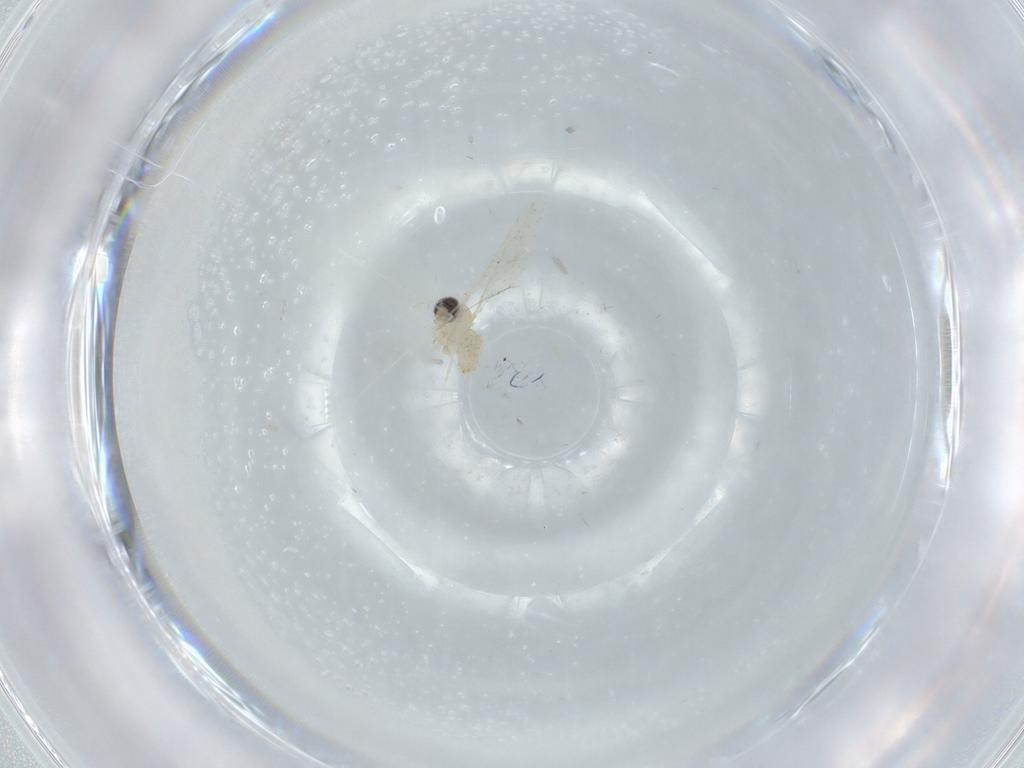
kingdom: Animalia
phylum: Arthropoda
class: Insecta
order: Diptera
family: Cecidomyiidae
